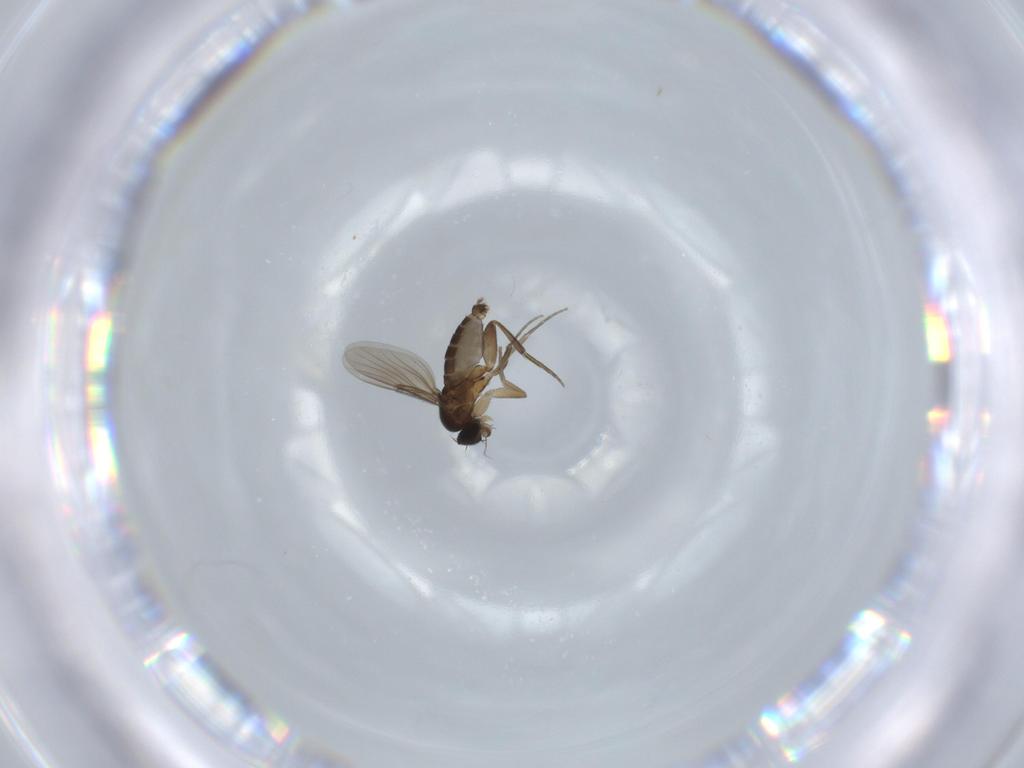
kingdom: Animalia
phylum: Arthropoda
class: Insecta
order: Diptera
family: Phoridae
